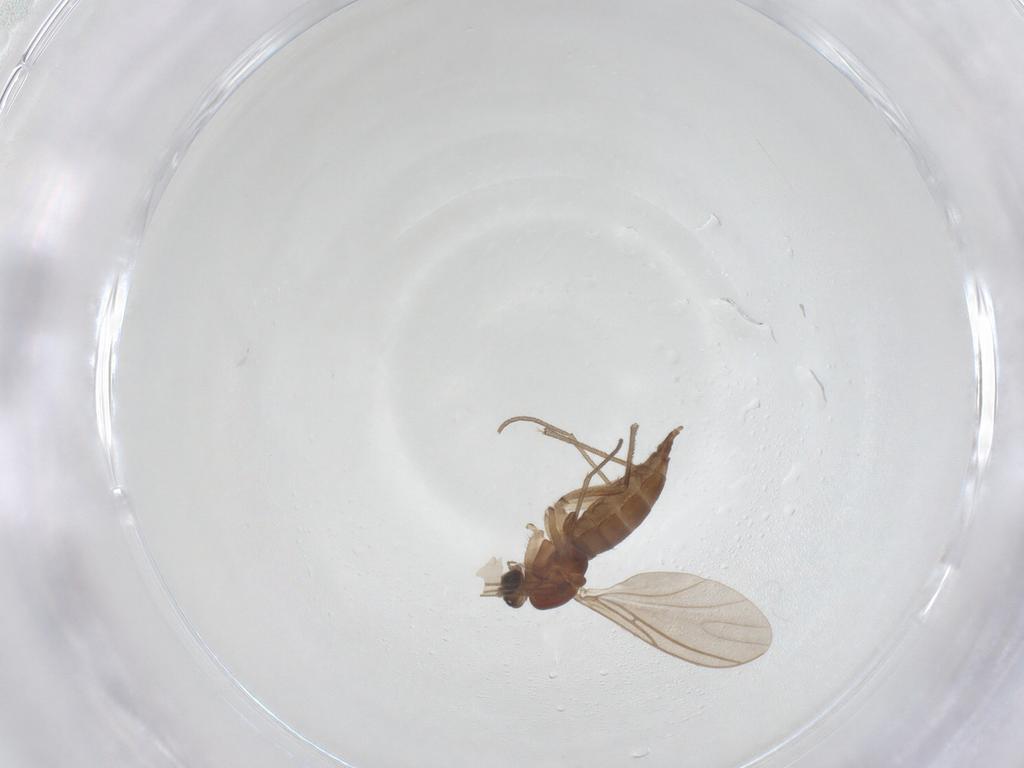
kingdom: Animalia
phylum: Arthropoda
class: Insecta
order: Diptera
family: Sciaridae
